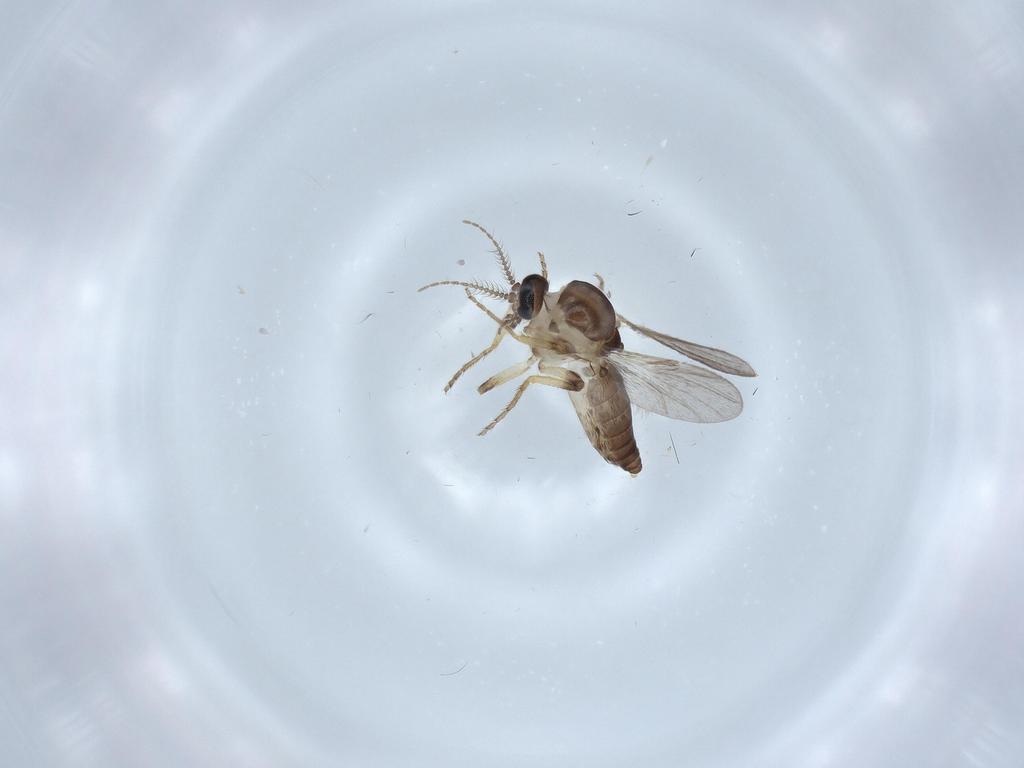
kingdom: Animalia
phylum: Arthropoda
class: Insecta
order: Diptera
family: Ceratopogonidae
